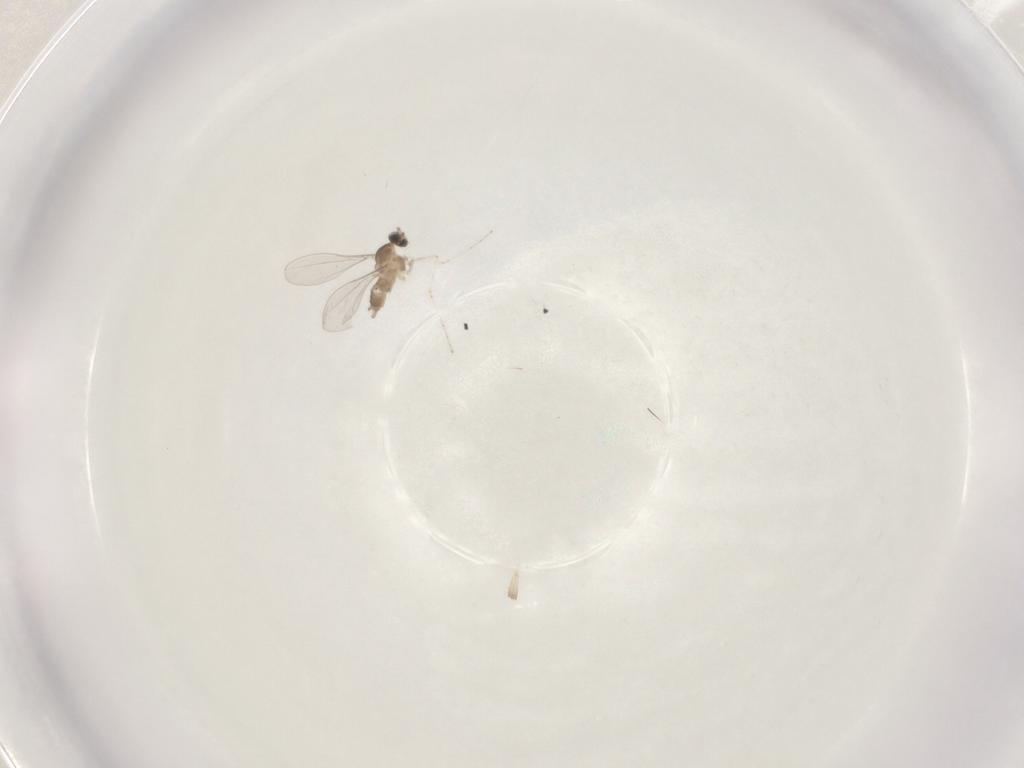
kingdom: Animalia
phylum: Arthropoda
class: Insecta
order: Diptera
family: Cecidomyiidae
